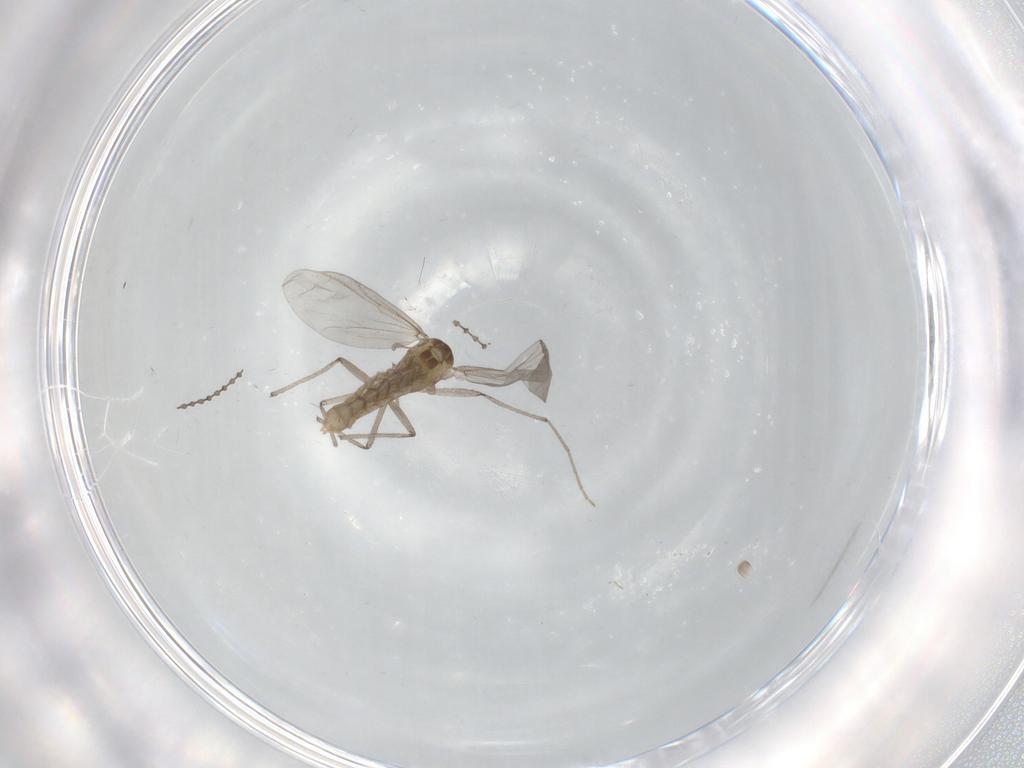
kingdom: Animalia
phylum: Arthropoda
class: Insecta
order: Diptera
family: Chironomidae
